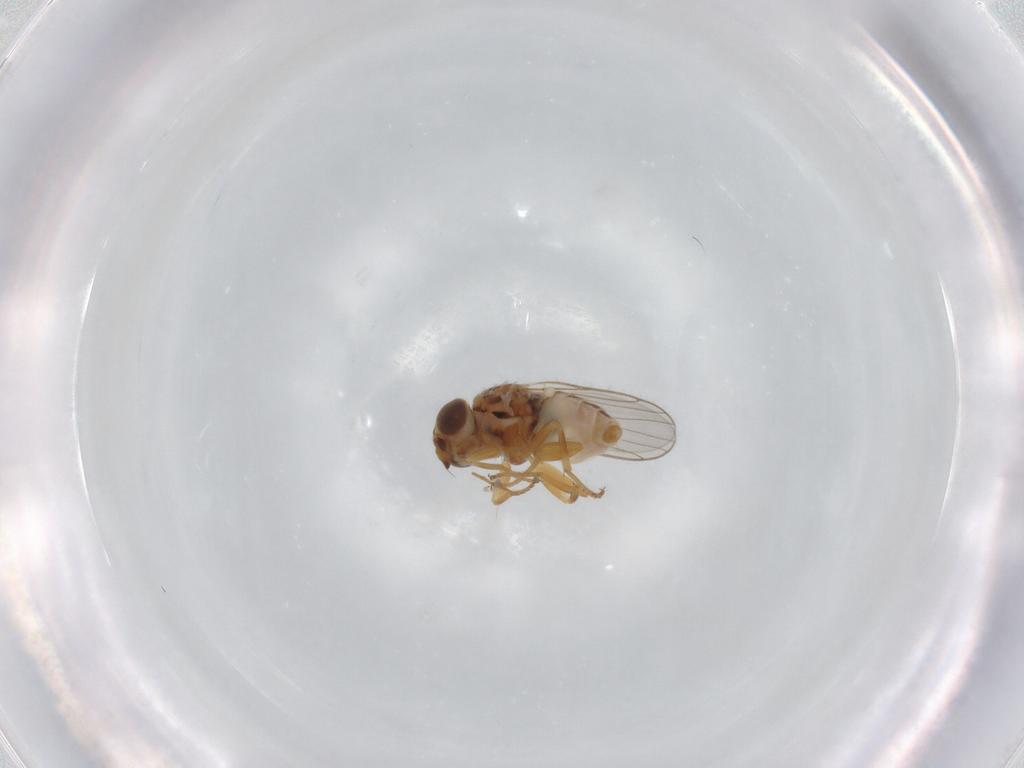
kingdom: Animalia
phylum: Arthropoda
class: Insecta
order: Diptera
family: Chloropidae
